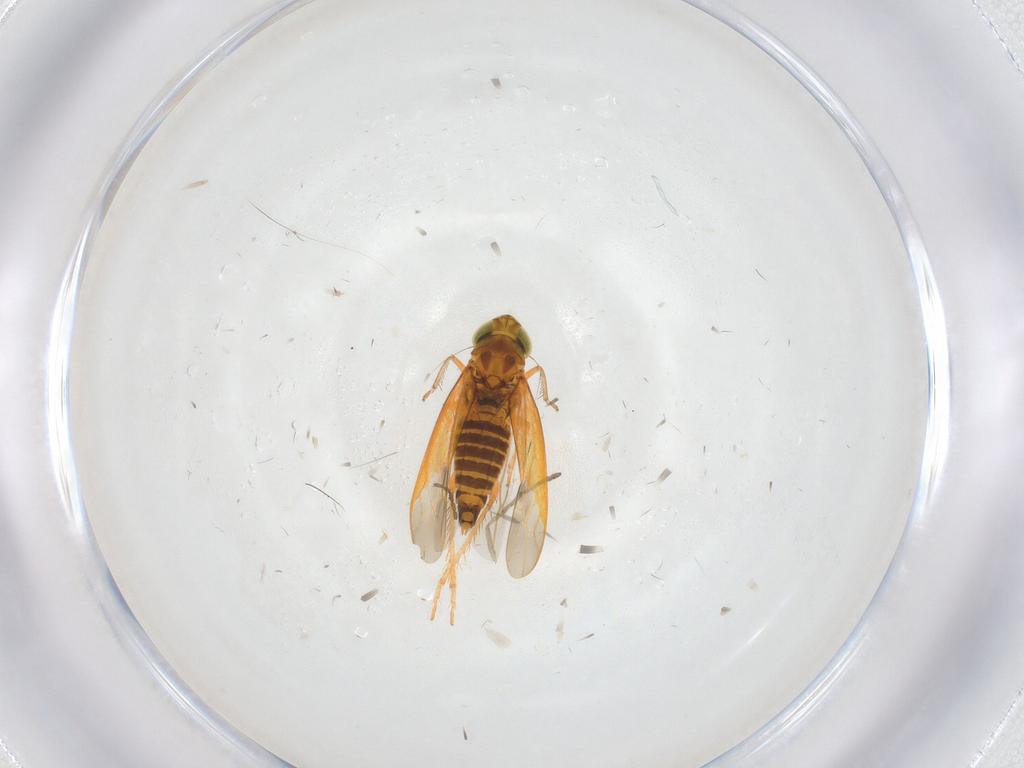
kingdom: Animalia
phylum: Arthropoda
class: Insecta
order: Hemiptera
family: Cicadellidae
